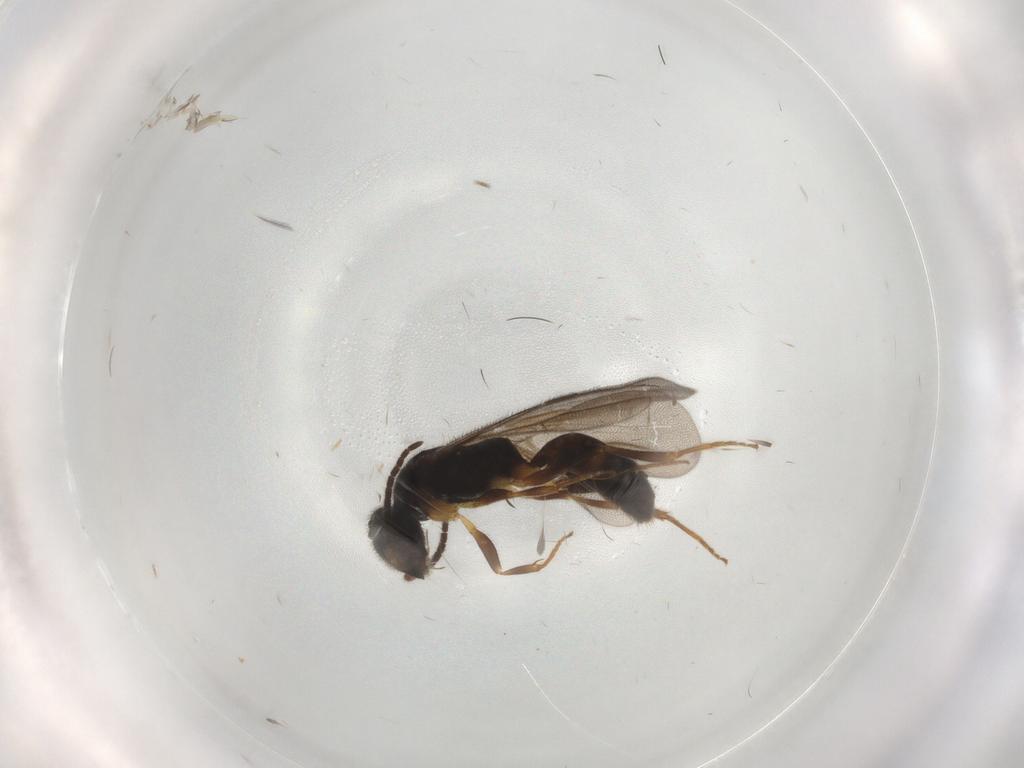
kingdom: Animalia
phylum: Arthropoda
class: Insecta
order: Hymenoptera
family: Bethylidae
